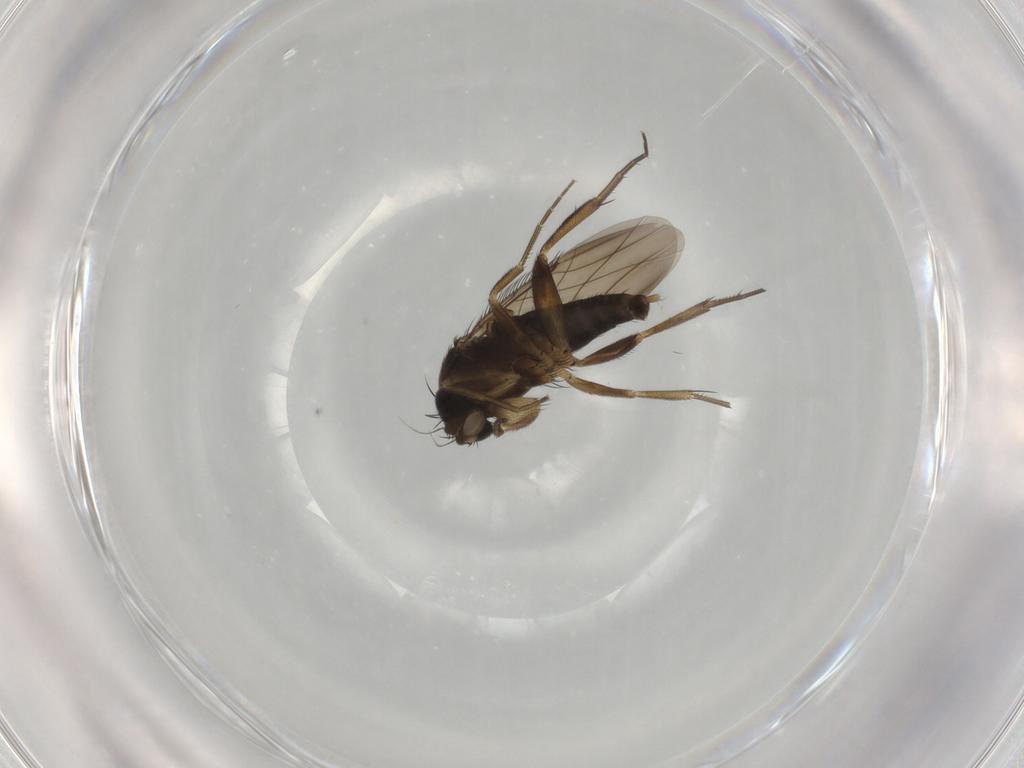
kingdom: Animalia
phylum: Arthropoda
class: Insecta
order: Diptera
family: Phoridae
